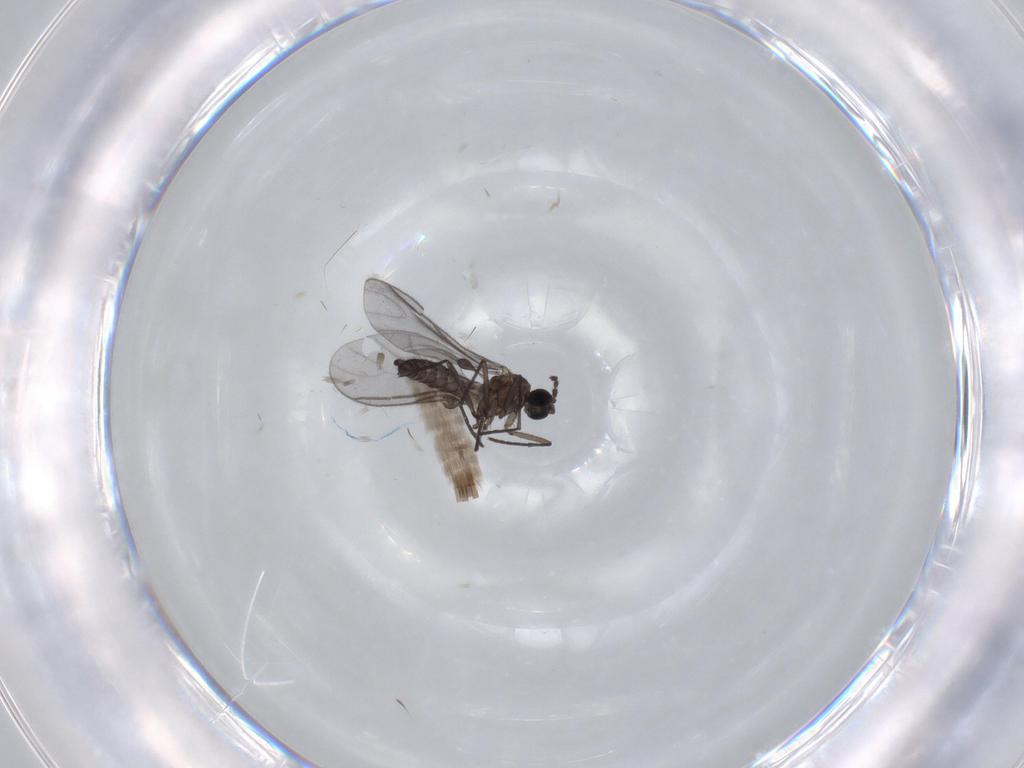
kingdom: Animalia
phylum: Arthropoda
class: Insecta
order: Diptera
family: Sciaridae
